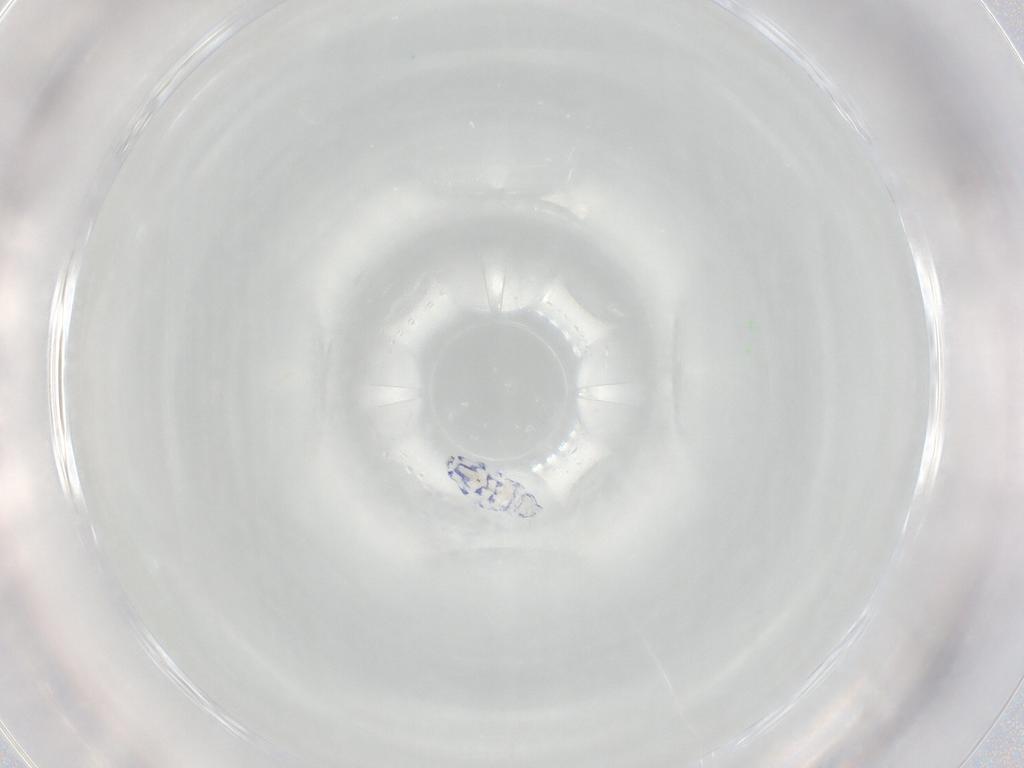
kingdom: Animalia
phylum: Arthropoda
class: Collembola
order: Entomobryomorpha
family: Entomobryidae
